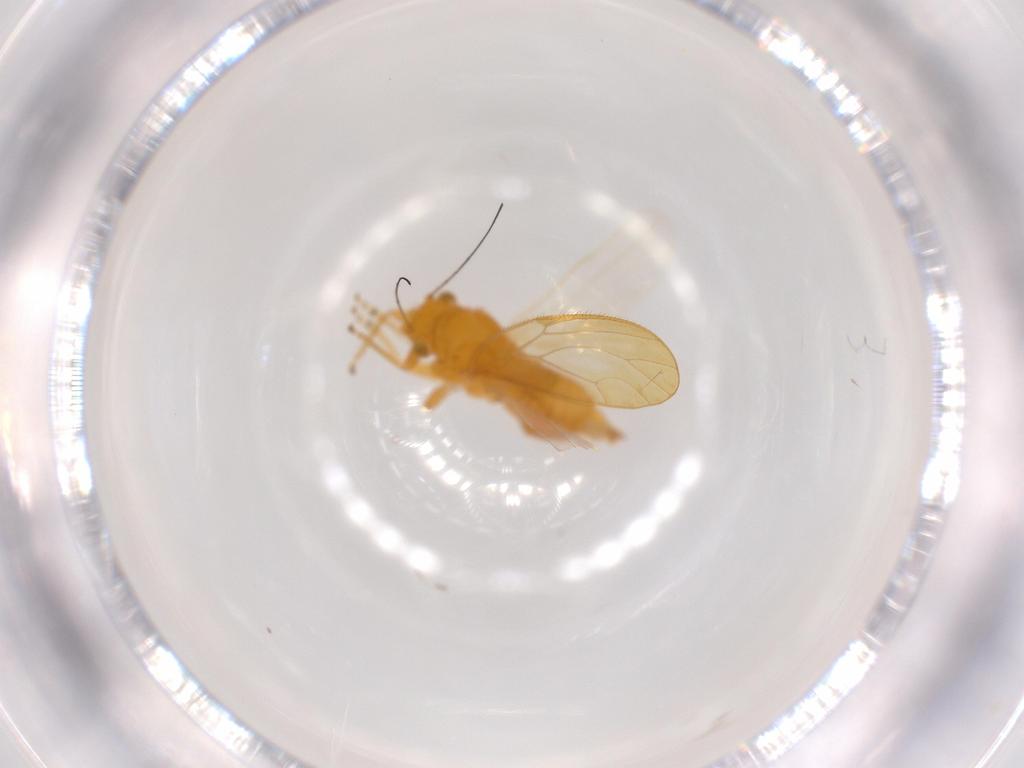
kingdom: Animalia
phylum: Arthropoda
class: Insecta
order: Hemiptera
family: Psyllidae
